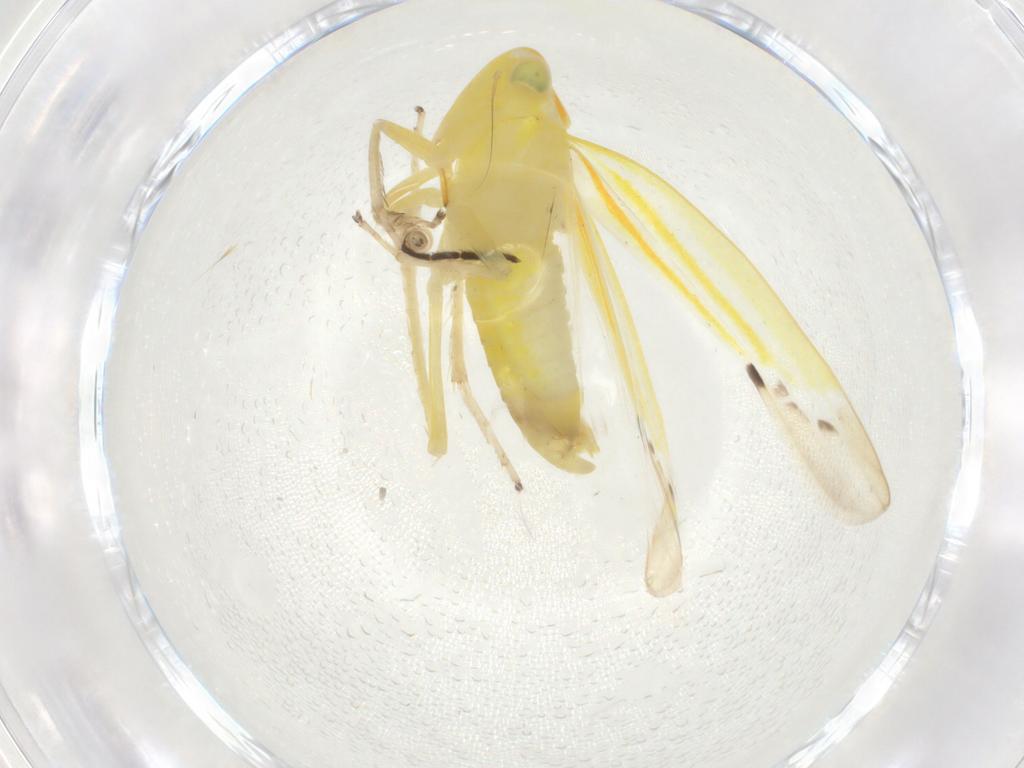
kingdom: Animalia
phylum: Arthropoda
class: Insecta
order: Hemiptera
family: Cicadellidae
